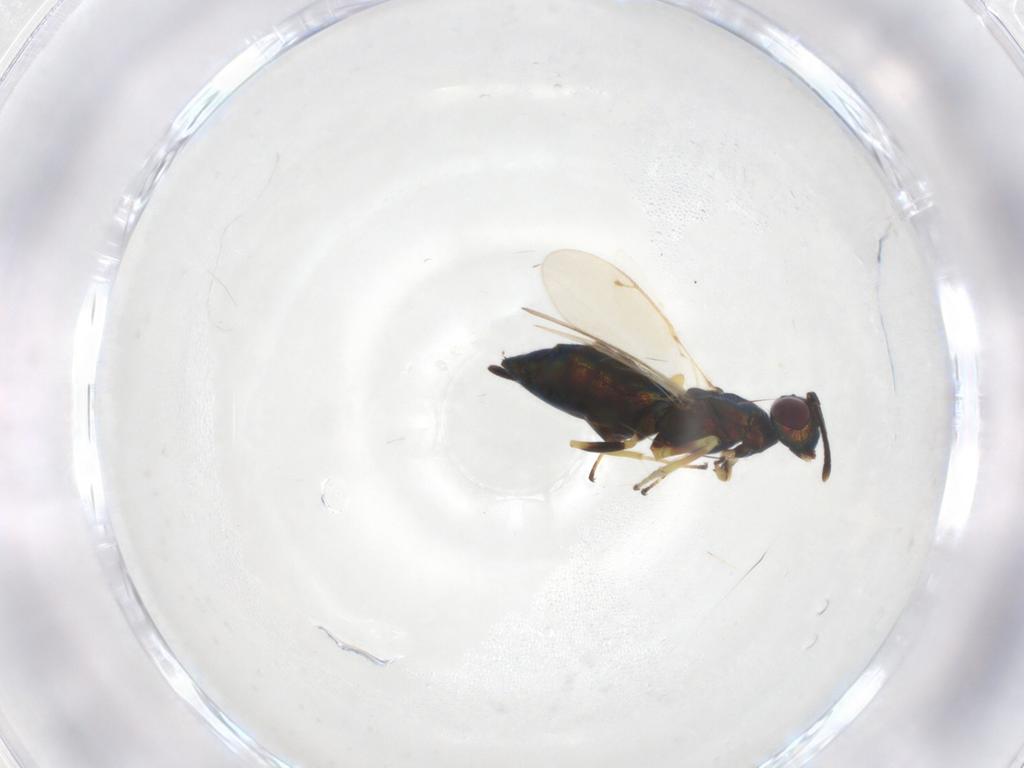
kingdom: Animalia
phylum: Arthropoda
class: Insecta
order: Hymenoptera
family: Eupelmidae
